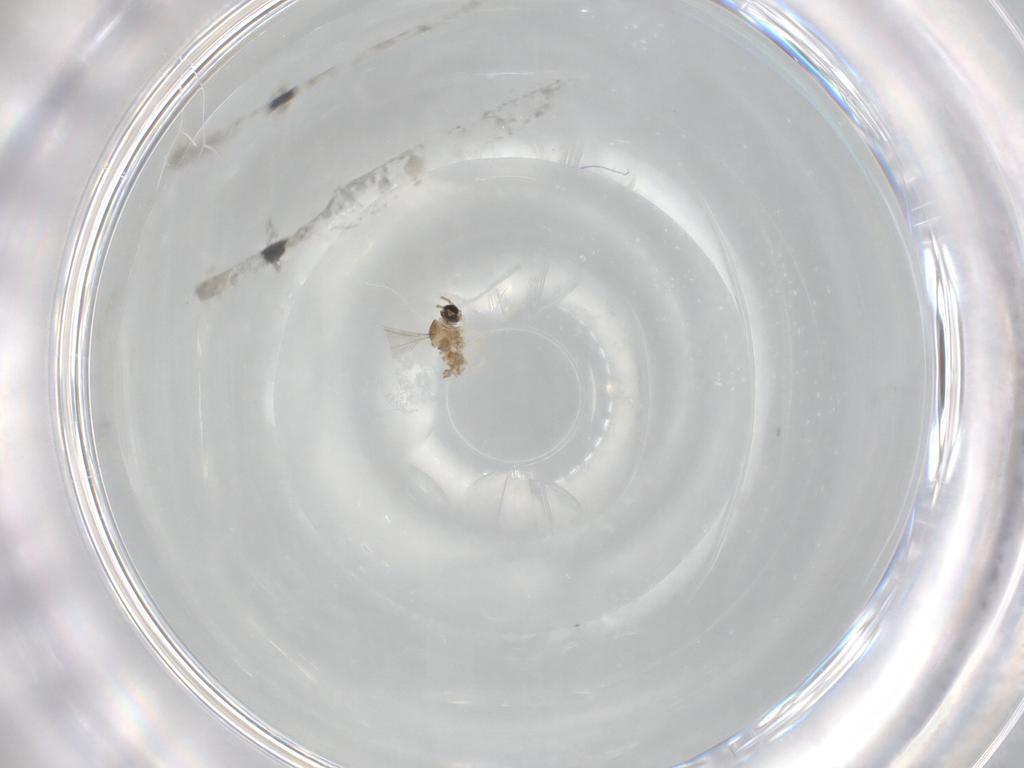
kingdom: Animalia
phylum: Arthropoda
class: Insecta
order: Diptera
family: Cecidomyiidae
